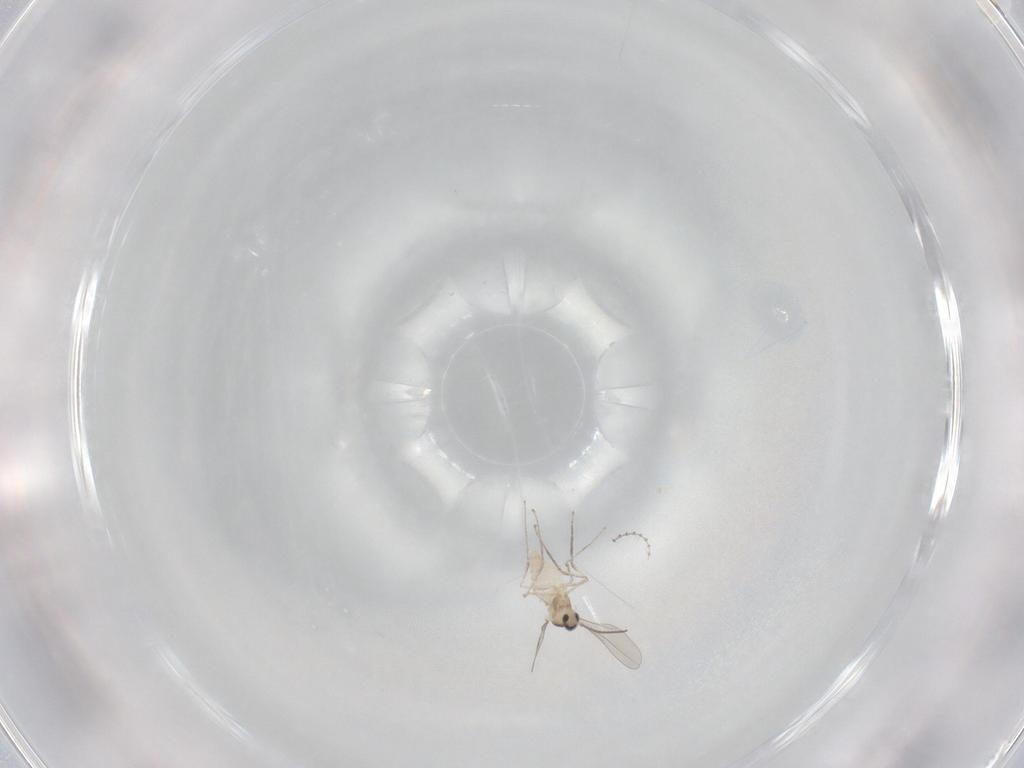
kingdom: Animalia
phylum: Arthropoda
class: Insecta
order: Diptera
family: Cecidomyiidae
